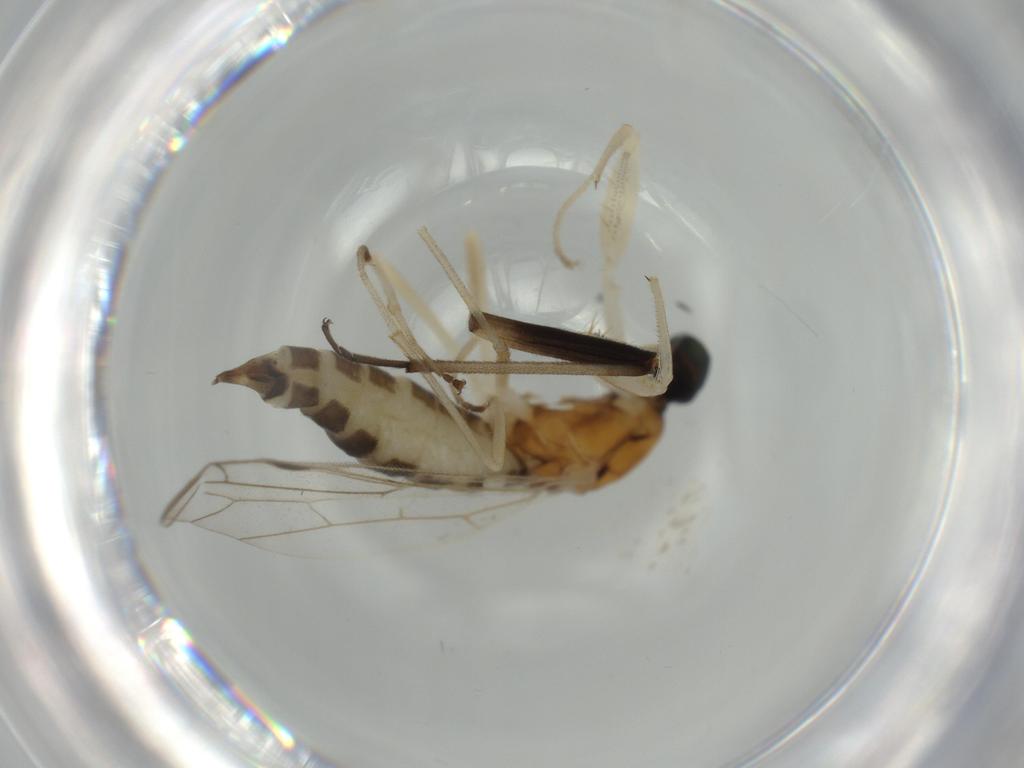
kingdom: Animalia
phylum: Arthropoda
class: Insecta
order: Diptera
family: Empididae
